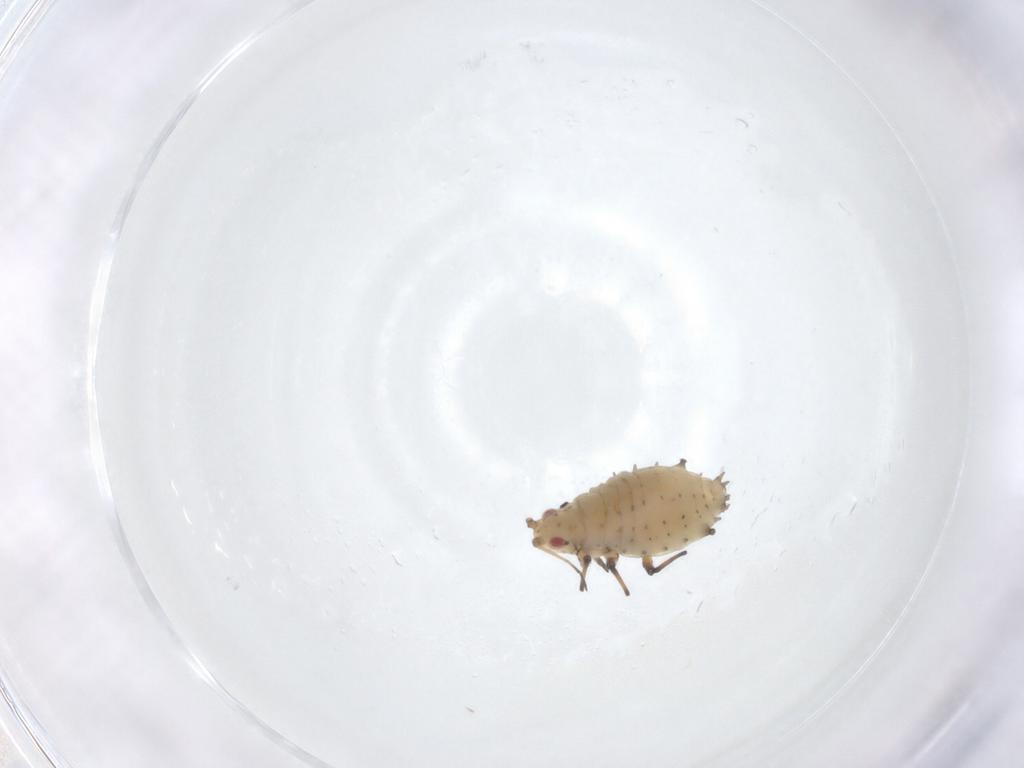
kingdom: Animalia
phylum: Arthropoda
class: Insecta
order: Hemiptera
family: Aphididae
